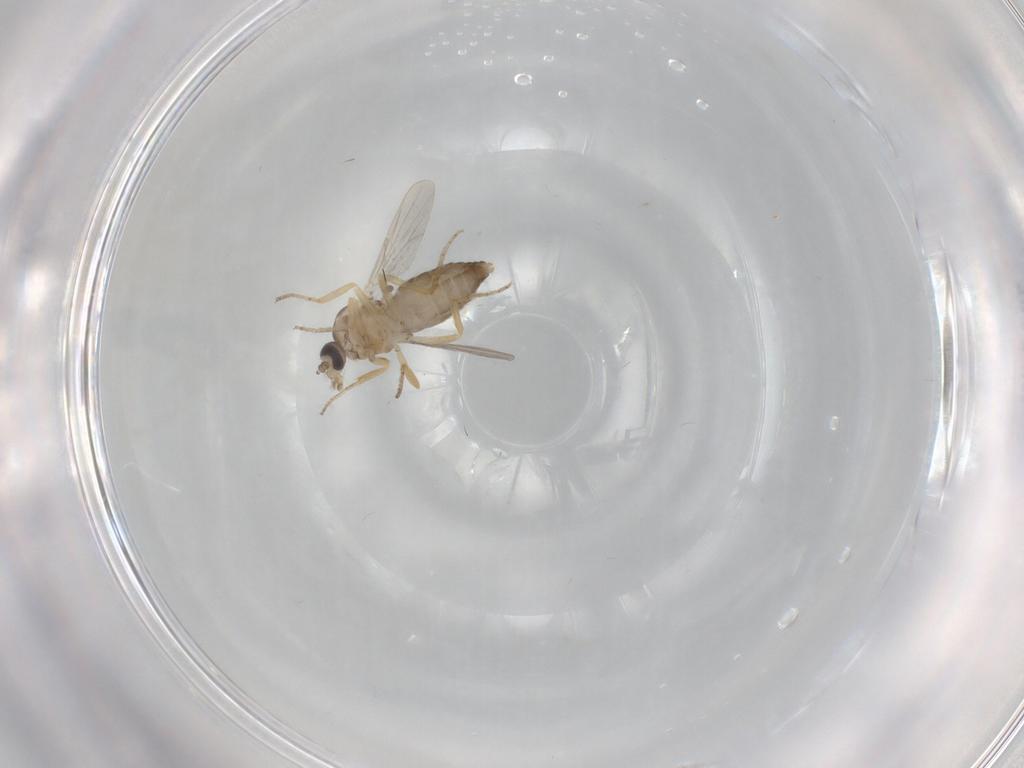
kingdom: Animalia
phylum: Arthropoda
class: Insecta
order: Diptera
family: Ceratopogonidae
